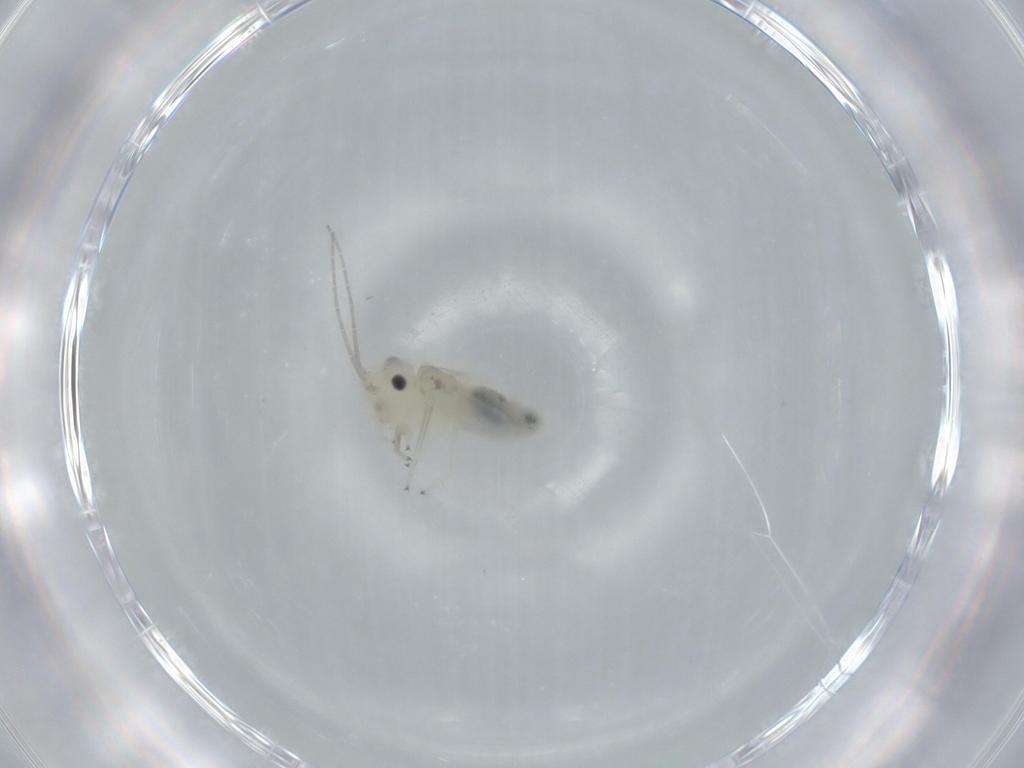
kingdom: Animalia
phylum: Arthropoda
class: Insecta
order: Psocodea
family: Caeciliusidae
